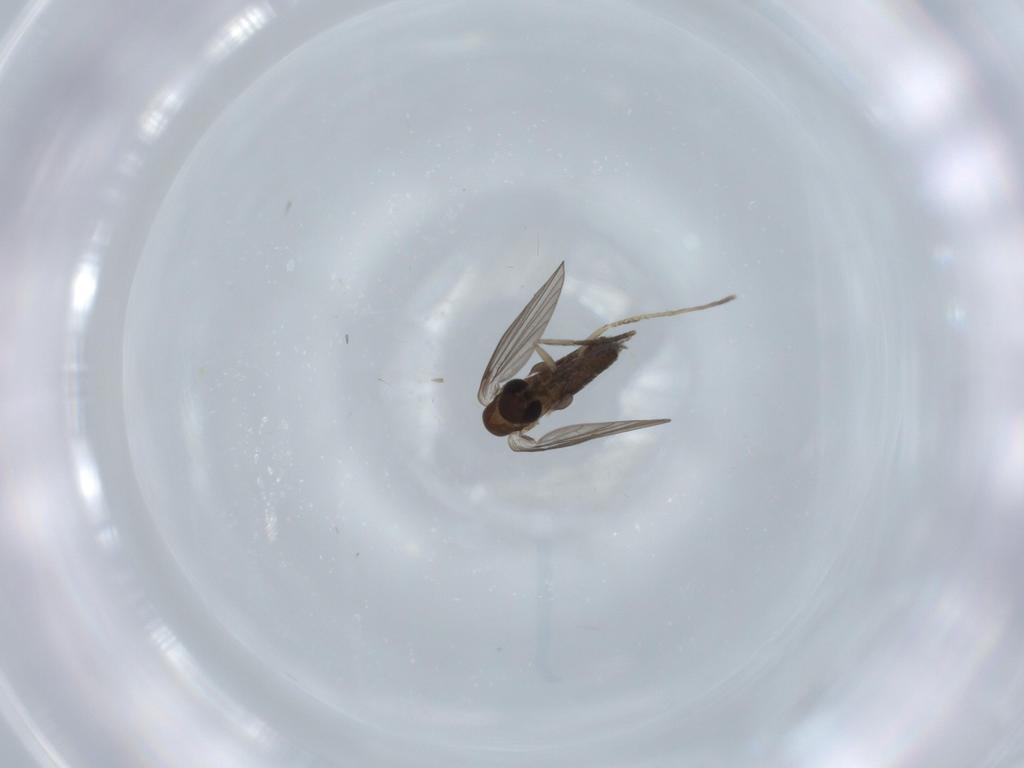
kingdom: Animalia
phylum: Arthropoda
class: Insecta
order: Diptera
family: Psychodidae
